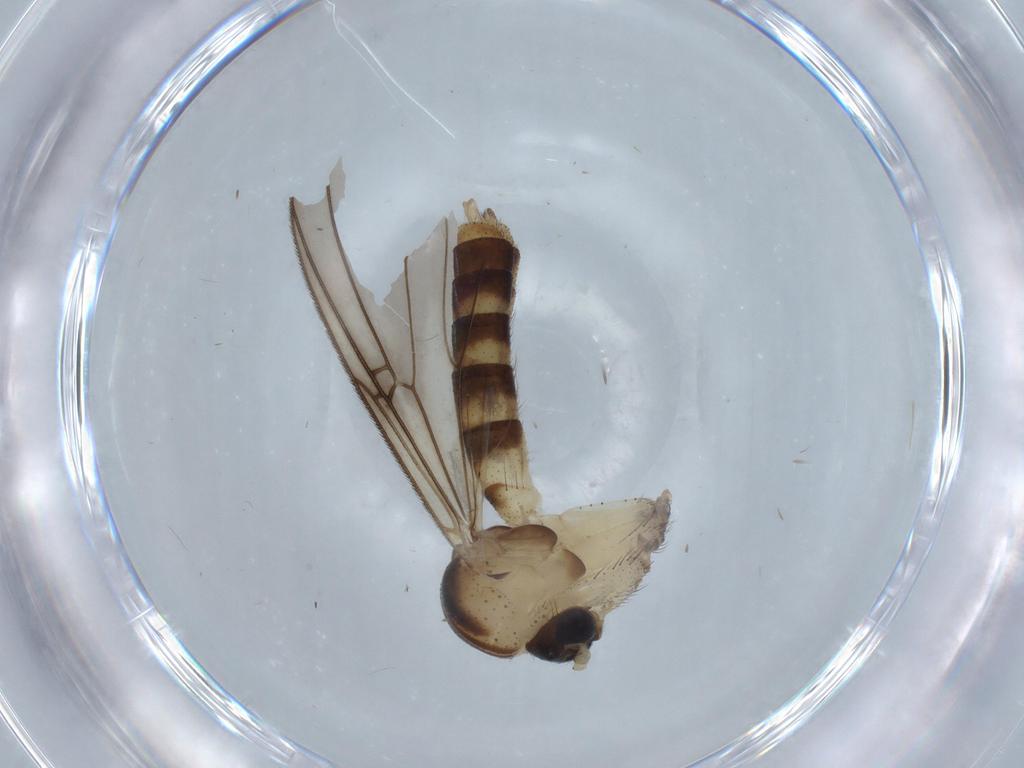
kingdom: Animalia
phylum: Arthropoda
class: Insecta
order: Diptera
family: Mycetophilidae
